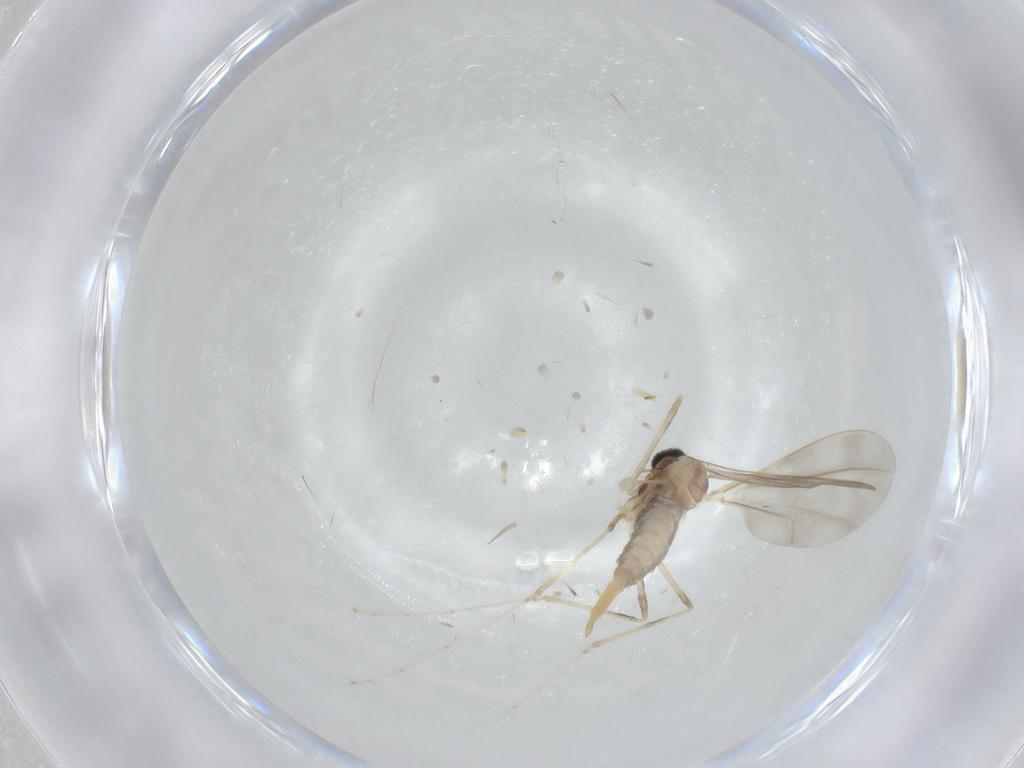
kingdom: Animalia
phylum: Arthropoda
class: Insecta
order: Diptera
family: Cecidomyiidae
